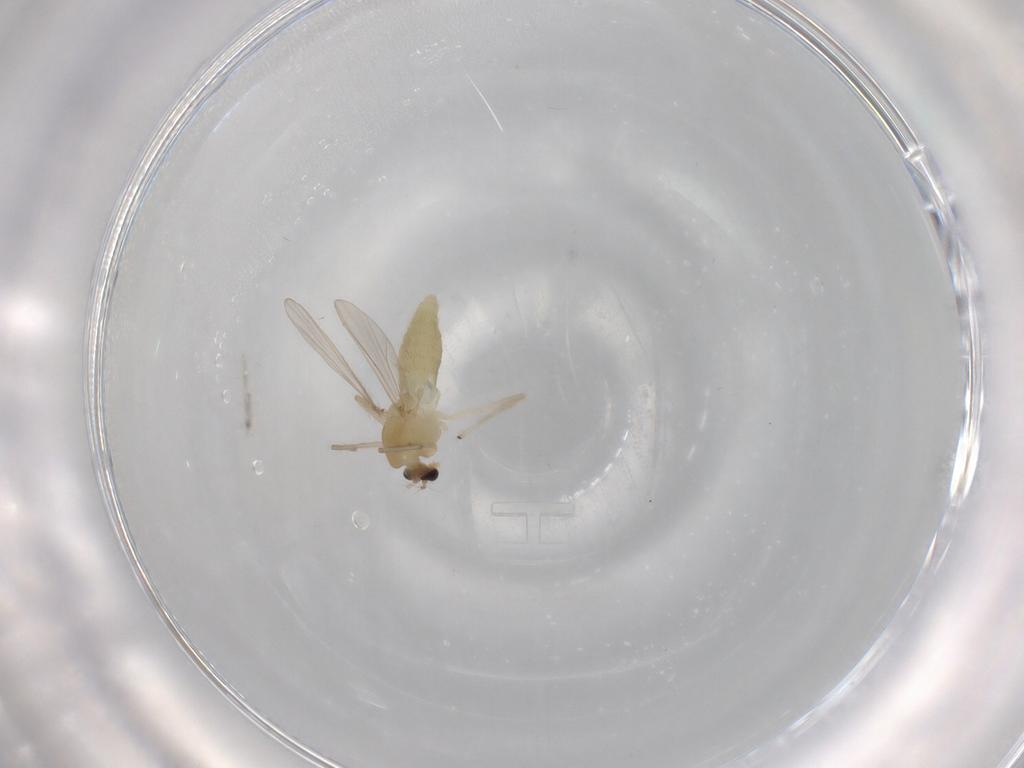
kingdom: Animalia
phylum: Arthropoda
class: Insecta
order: Diptera
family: Chironomidae
